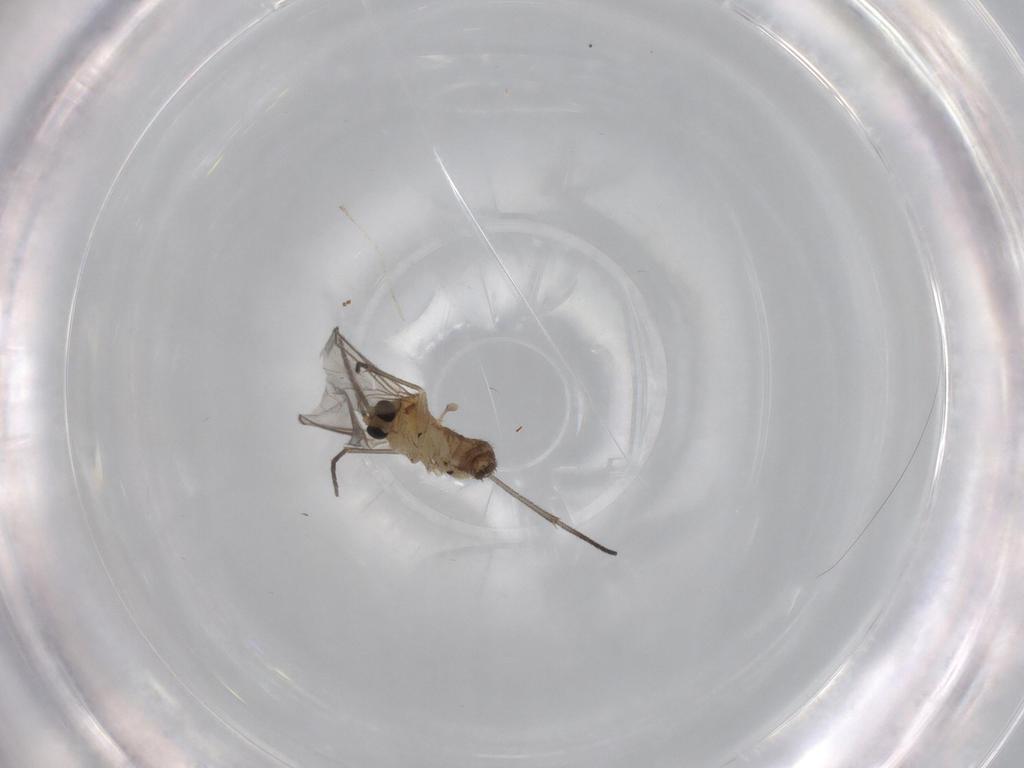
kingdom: Animalia
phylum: Arthropoda
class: Insecta
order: Diptera
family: Sciaridae
